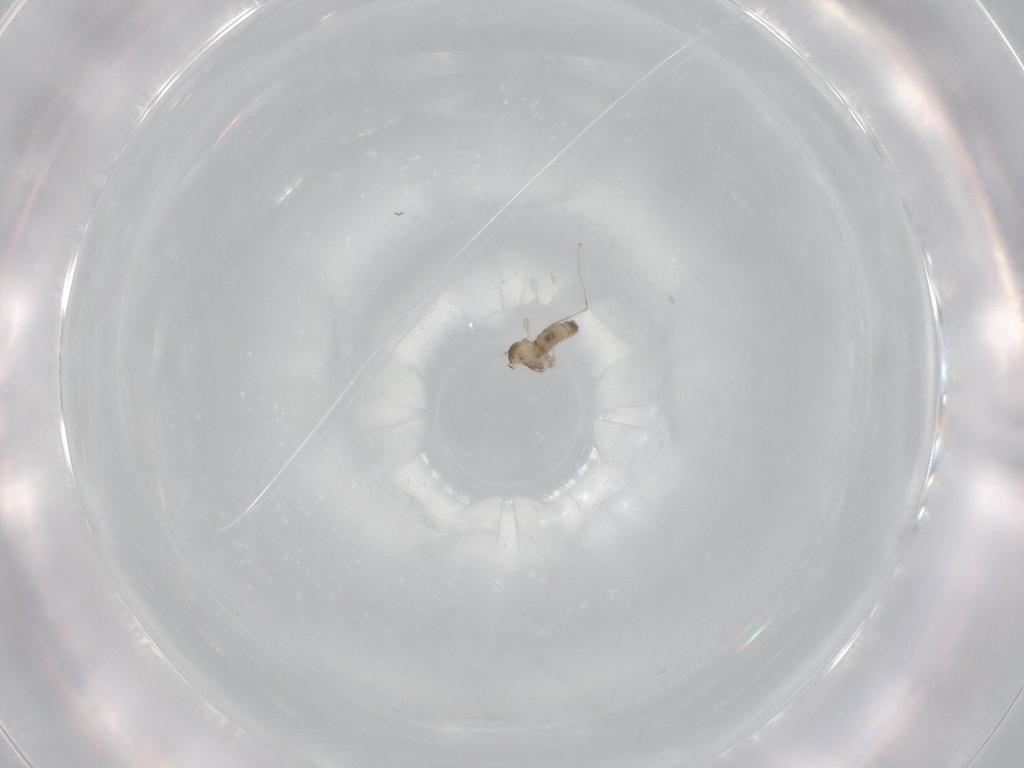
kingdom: Animalia
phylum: Arthropoda
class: Insecta
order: Diptera
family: Cecidomyiidae
